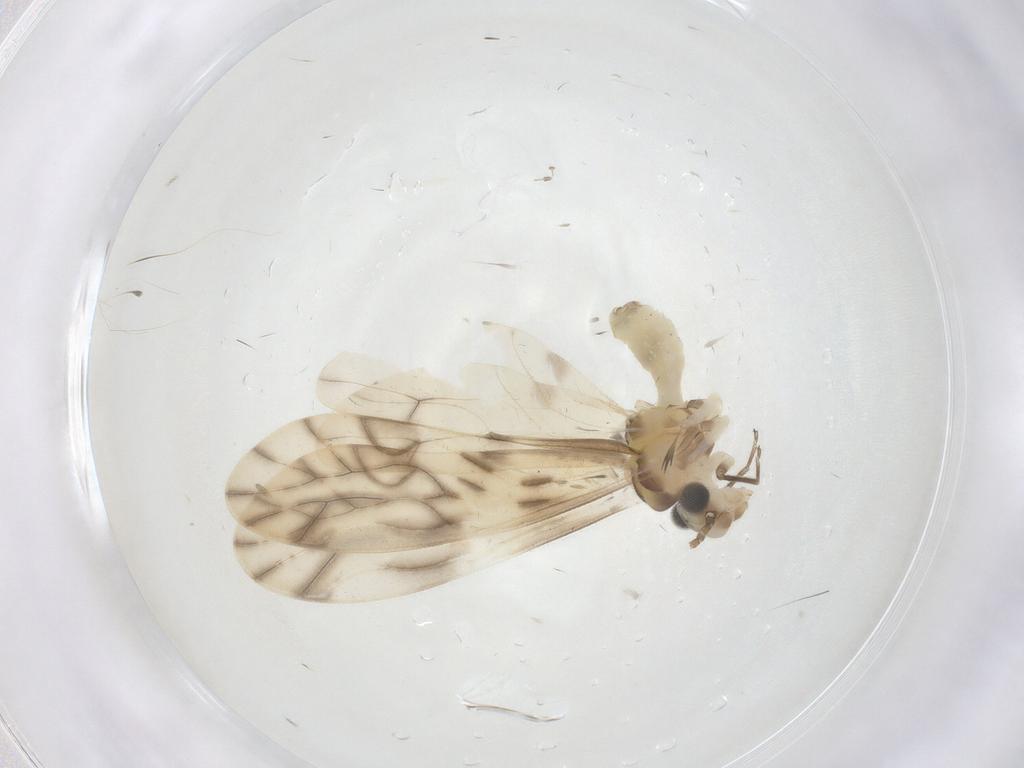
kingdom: Animalia
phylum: Arthropoda
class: Insecta
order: Psocodea
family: Caeciliusidae
